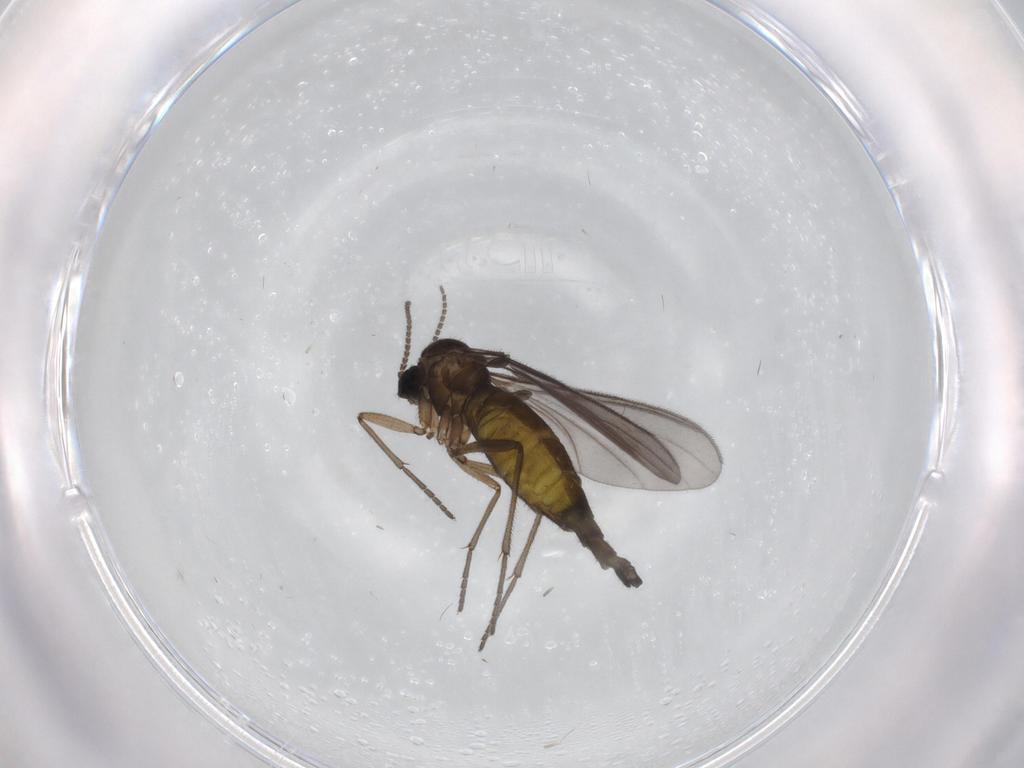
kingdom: Animalia
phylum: Arthropoda
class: Insecta
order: Diptera
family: Sciaridae
